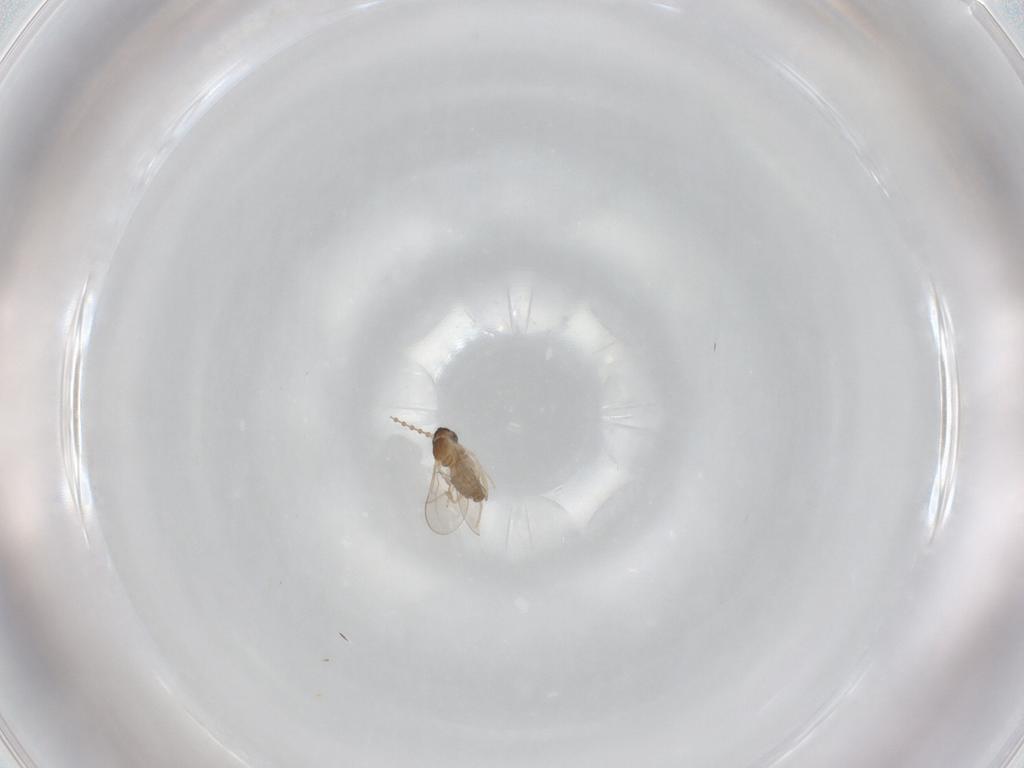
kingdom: Animalia
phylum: Arthropoda
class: Insecta
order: Diptera
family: Cecidomyiidae
